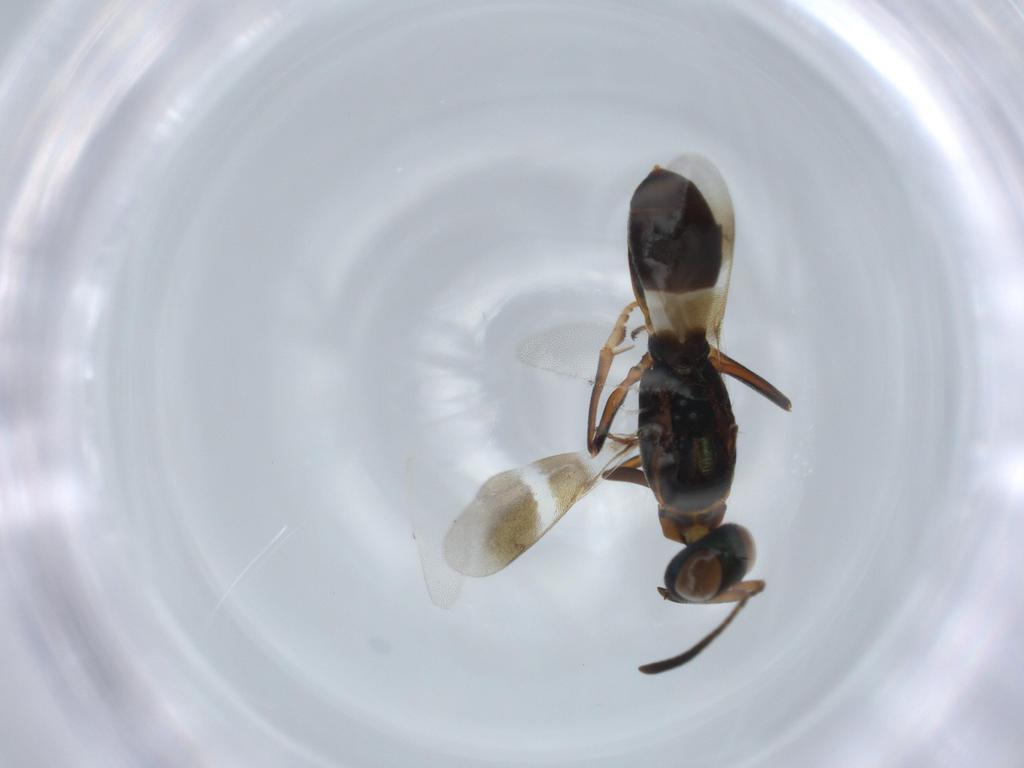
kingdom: Animalia
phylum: Arthropoda
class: Insecta
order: Hymenoptera
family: Eupelmidae
